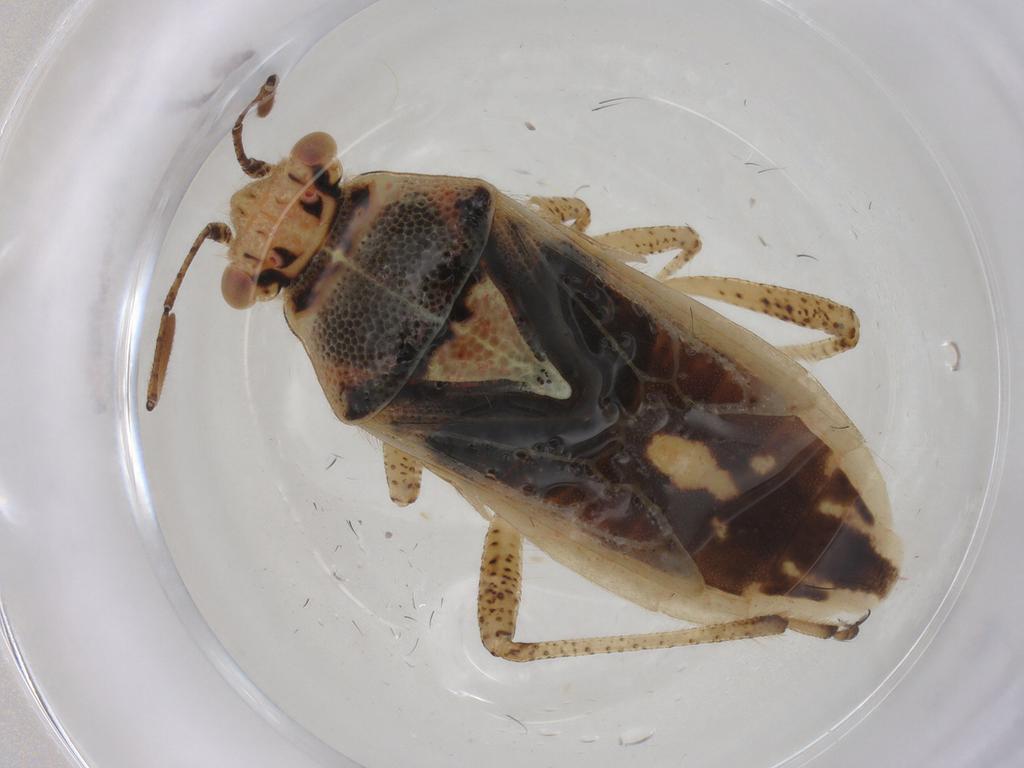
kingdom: Animalia
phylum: Arthropoda
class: Insecta
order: Hemiptera
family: Rhopalidae
